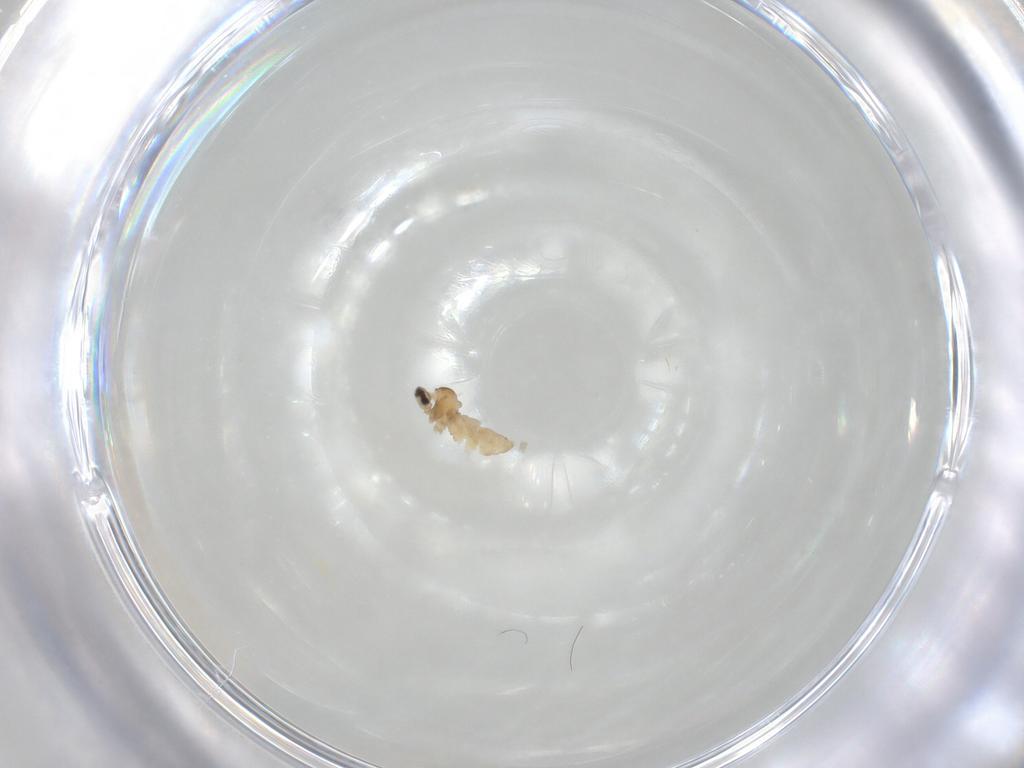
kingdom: Animalia
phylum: Arthropoda
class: Insecta
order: Diptera
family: Cecidomyiidae
